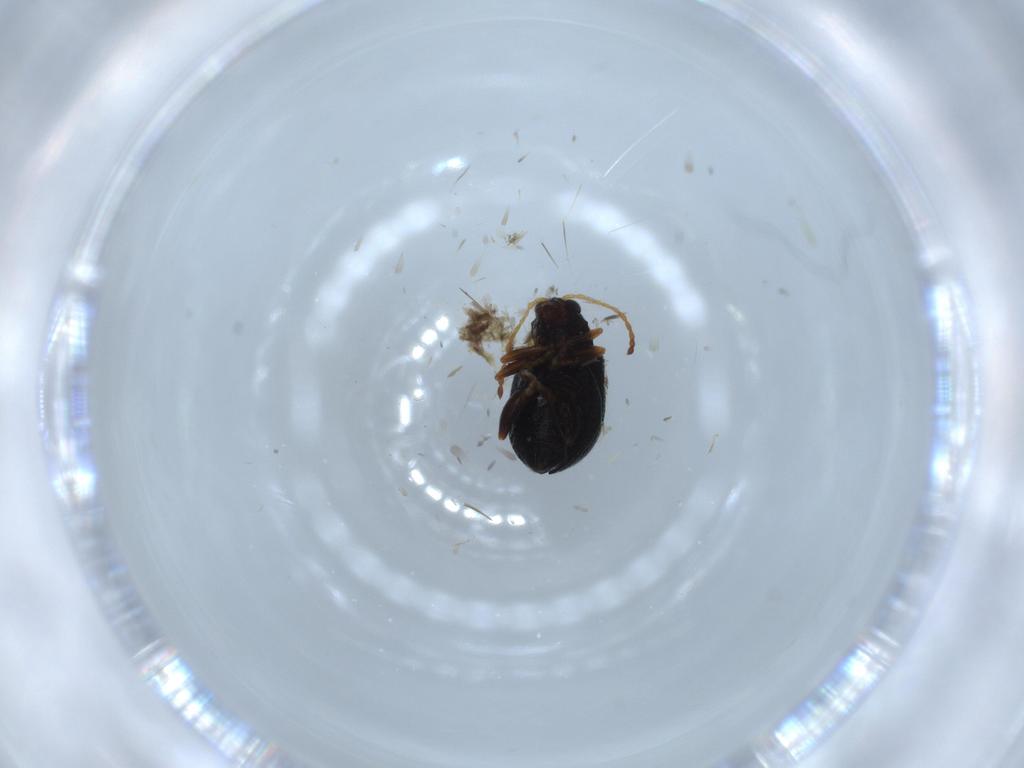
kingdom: Animalia
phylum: Arthropoda
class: Insecta
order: Coleoptera
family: Chrysomelidae
